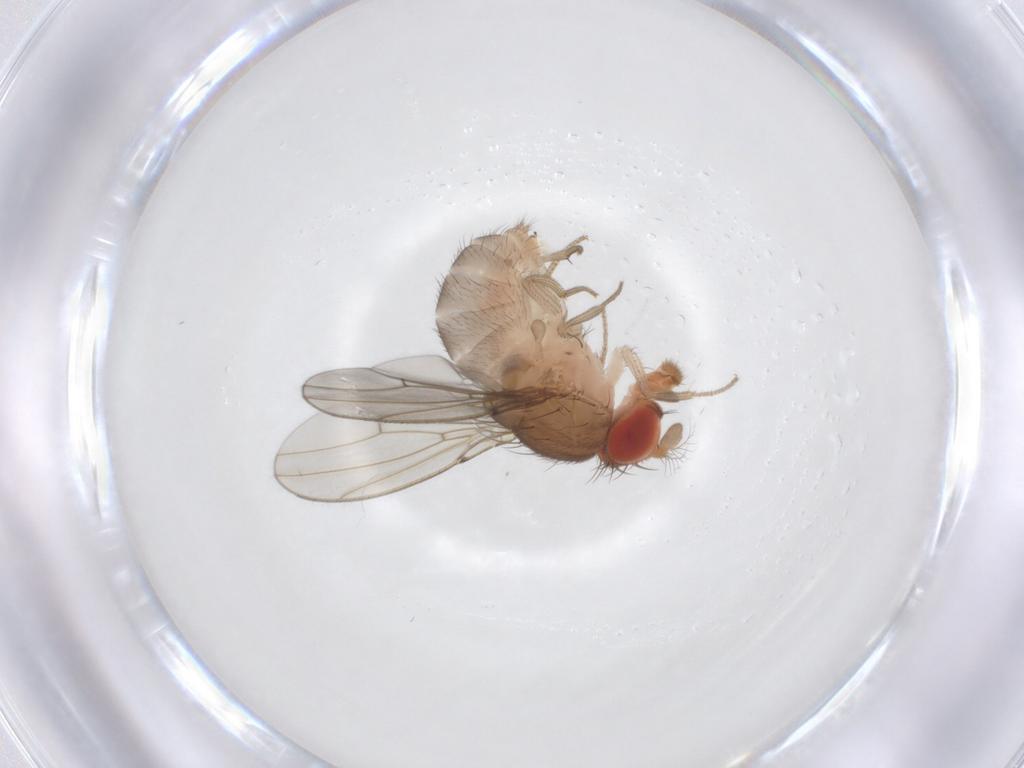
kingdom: Animalia
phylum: Arthropoda
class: Insecta
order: Diptera
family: Drosophilidae
